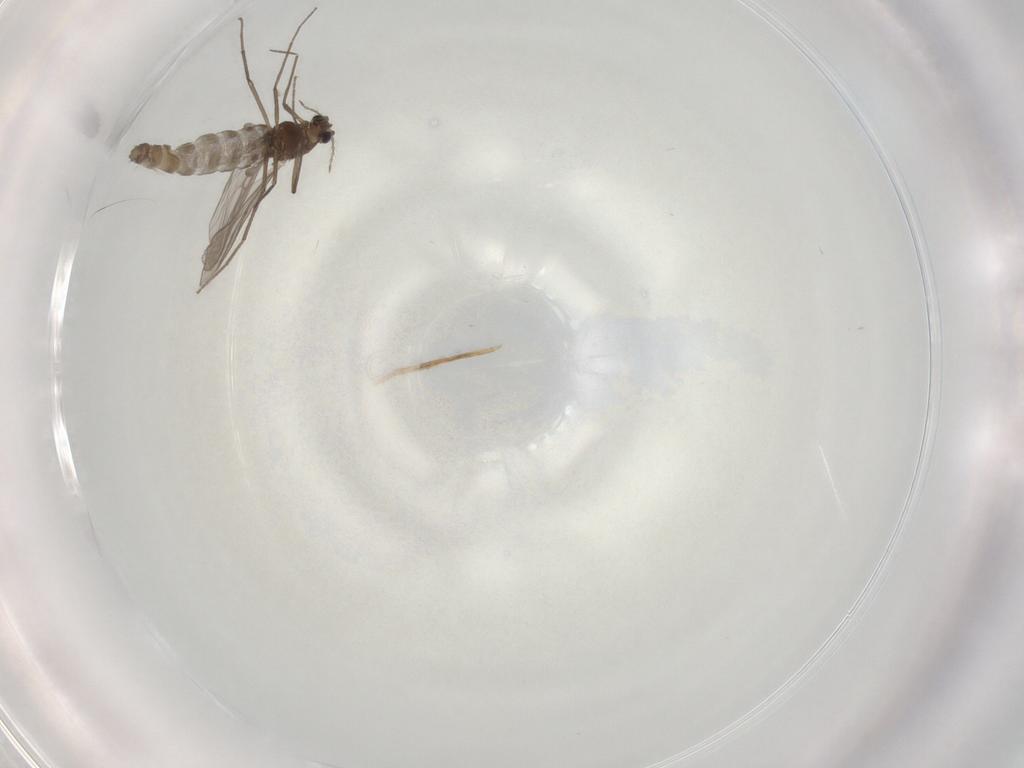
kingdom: Animalia
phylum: Arthropoda
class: Insecta
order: Diptera
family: Chironomidae
